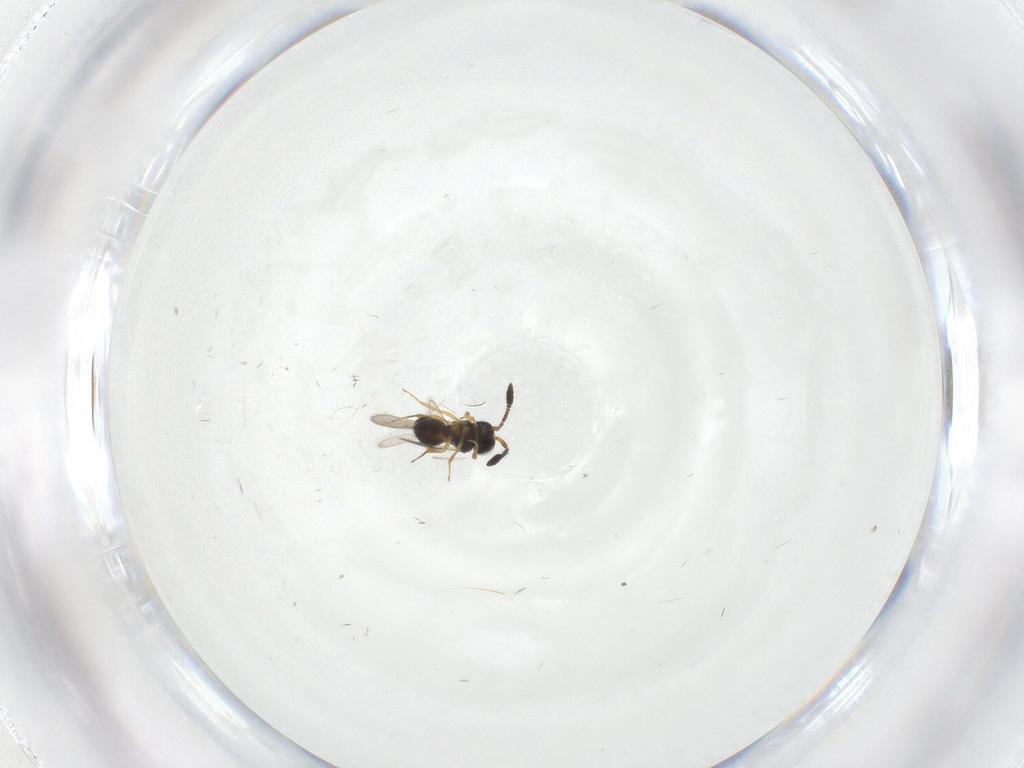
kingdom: Animalia
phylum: Arthropoda
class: Insecta
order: Hymenoptera
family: Scelionidae
